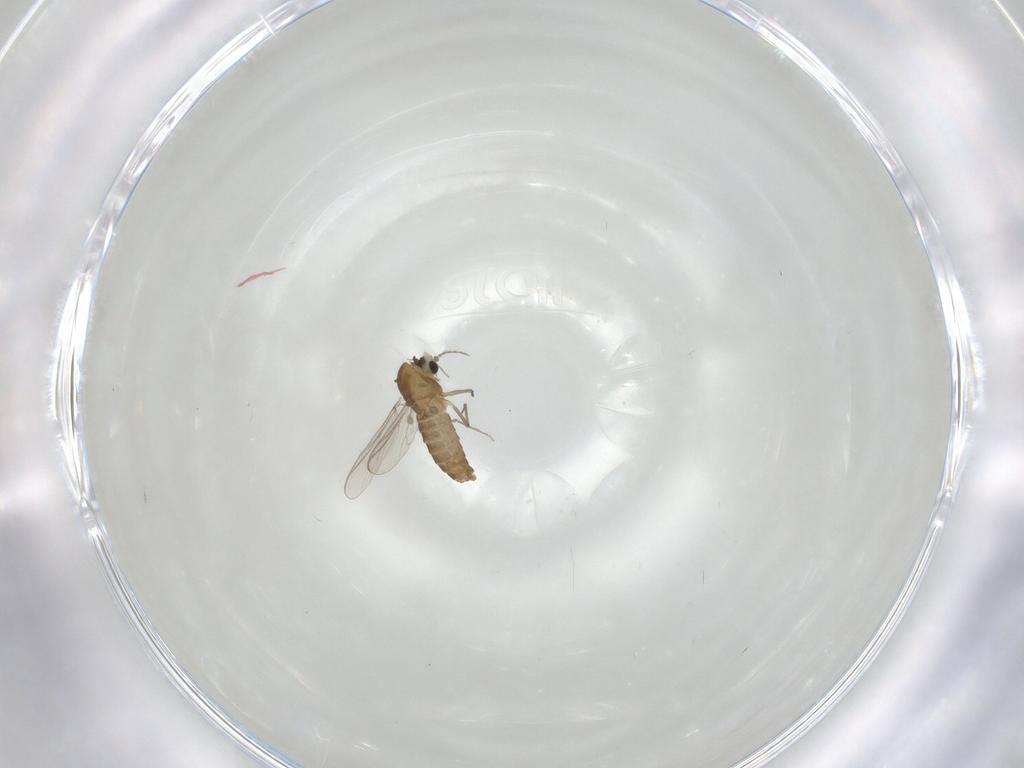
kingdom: Animalia
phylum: Arthropoda
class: Insecta
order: Diptera
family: Chironomidae
